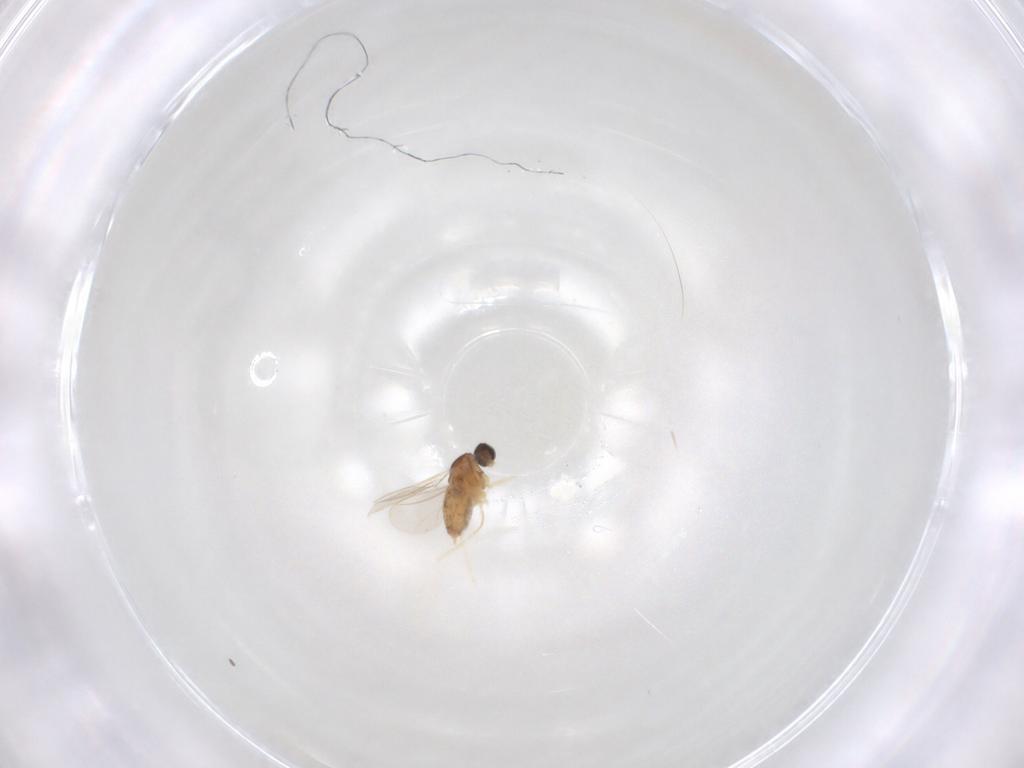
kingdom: Animalia
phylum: Arthropoda
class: Insecta
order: Diptera
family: Cecidomyiidae
